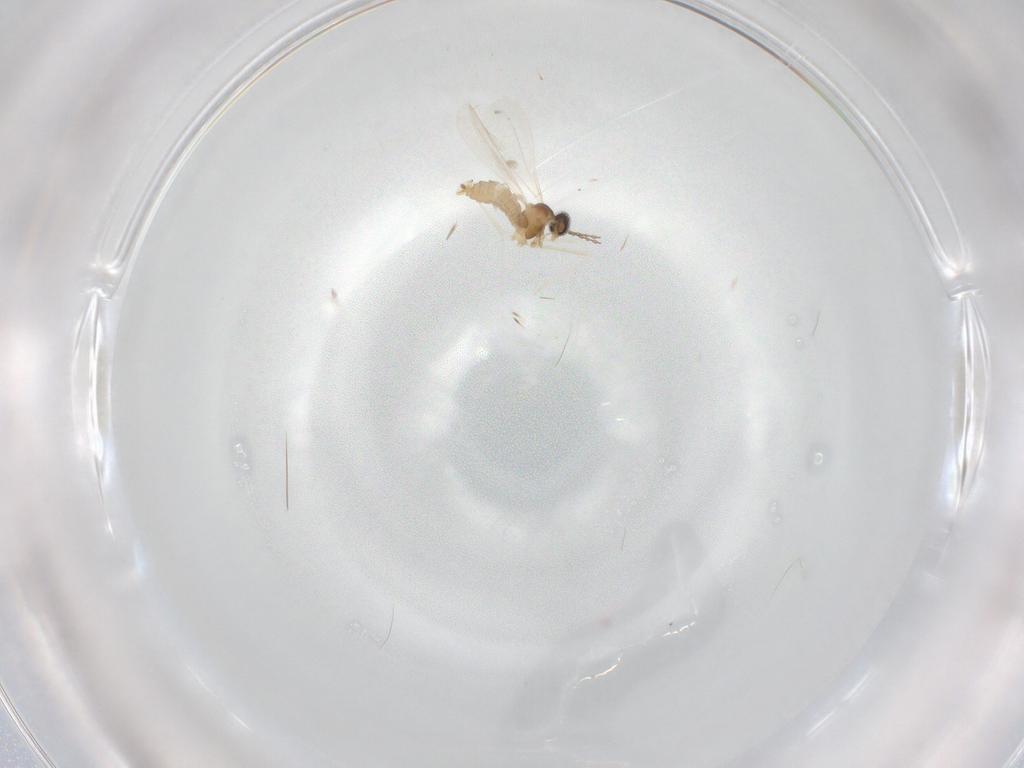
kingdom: Animalia
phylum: Arthropoda
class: Insecta
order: Diptera
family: Cecidomyiidae
